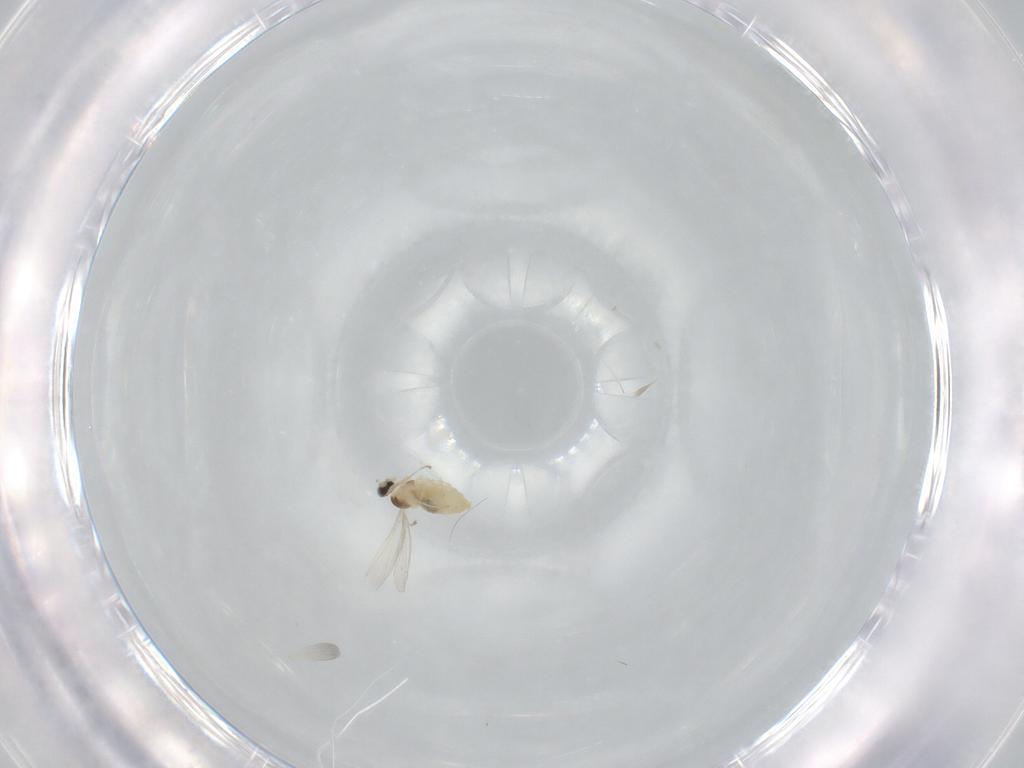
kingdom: Animalia
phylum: Arthropoda
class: Insecta
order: Diptera
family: Cecidomyiidae
